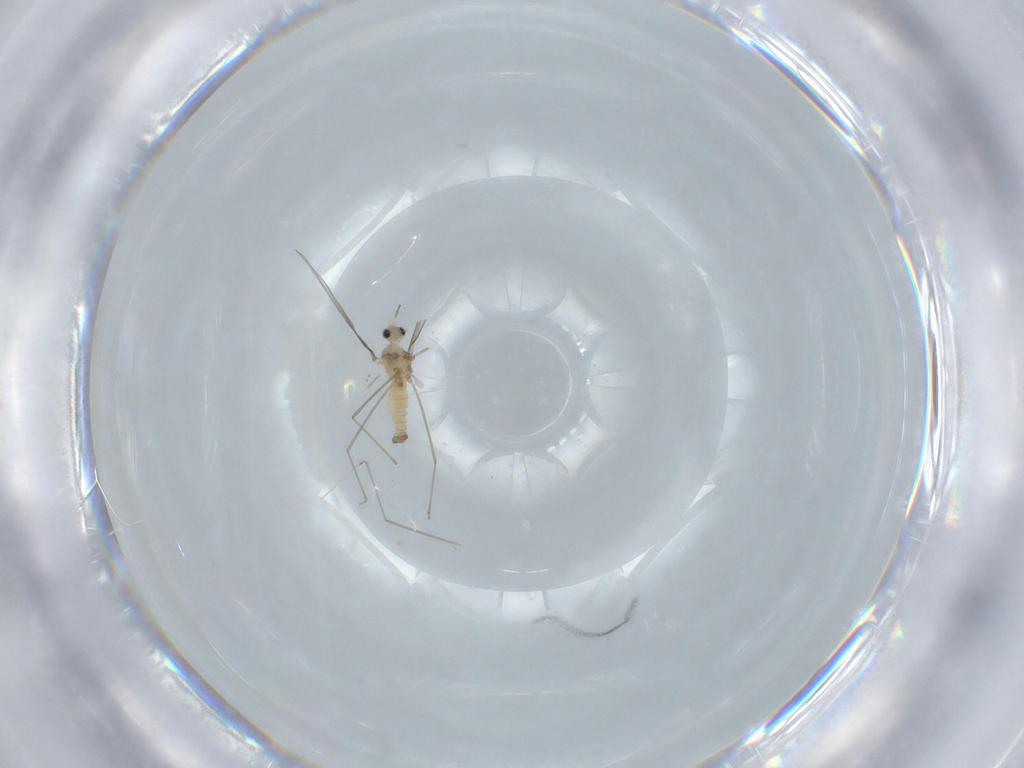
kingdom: Animalia
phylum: Arthropoda
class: Insecta
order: Diptera
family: Cecidomyiidae
